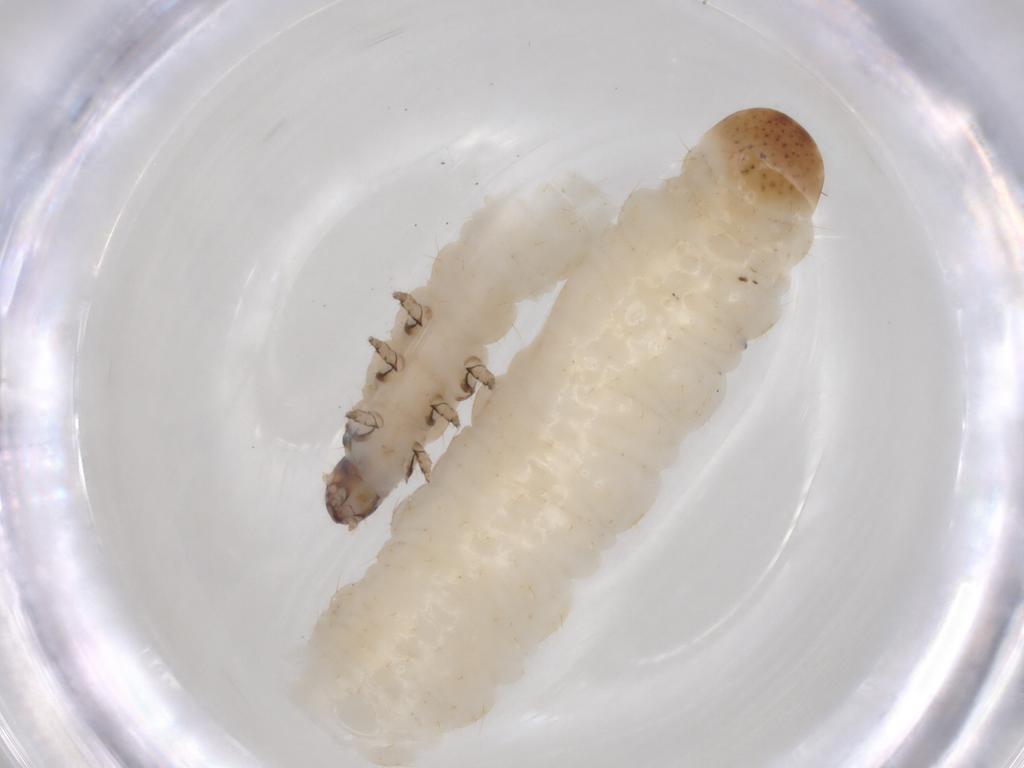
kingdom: Animalia
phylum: Arthropoda
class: Insecta
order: Coleoptera
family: Chrysomelidae
